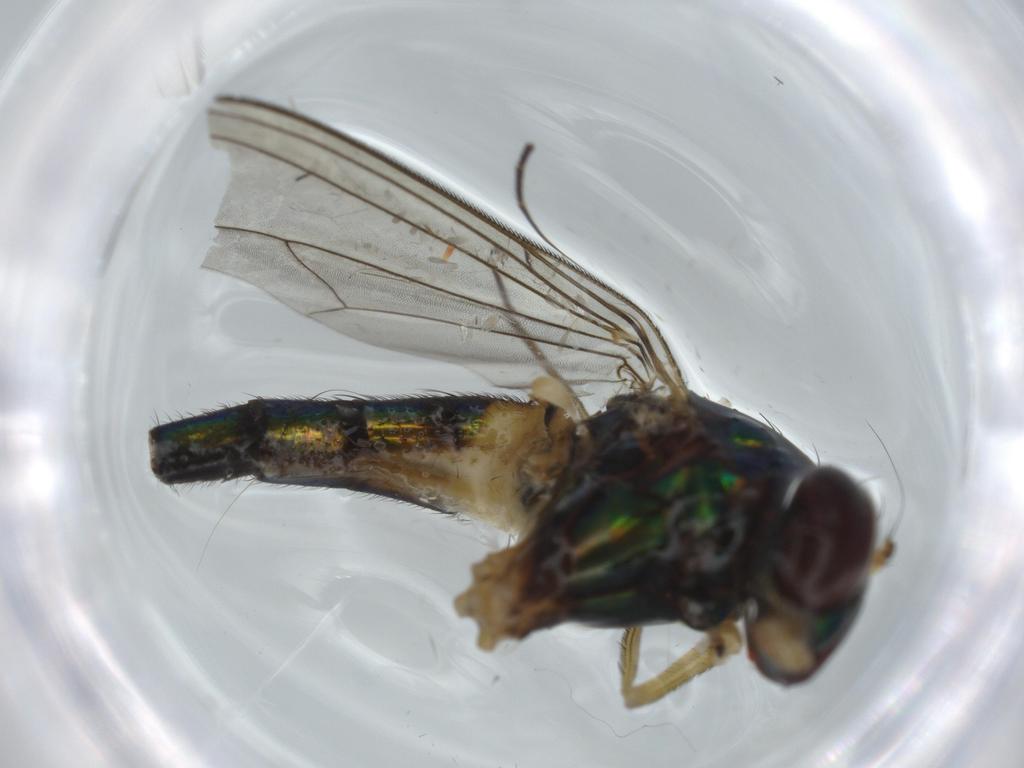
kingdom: Animalia
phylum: Arthropoda
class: Insecta
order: Diptera
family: Dolichopodidae
